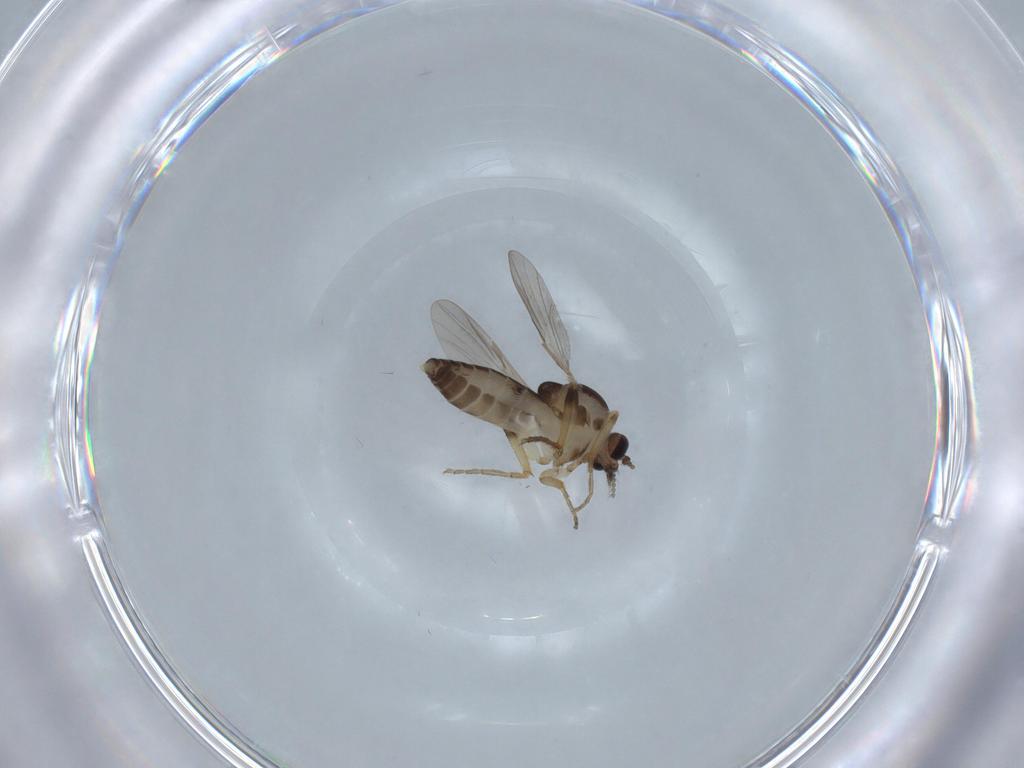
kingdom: Animalia
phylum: Arthropoda
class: Insecta
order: Diptera
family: Ceratopogonidae
